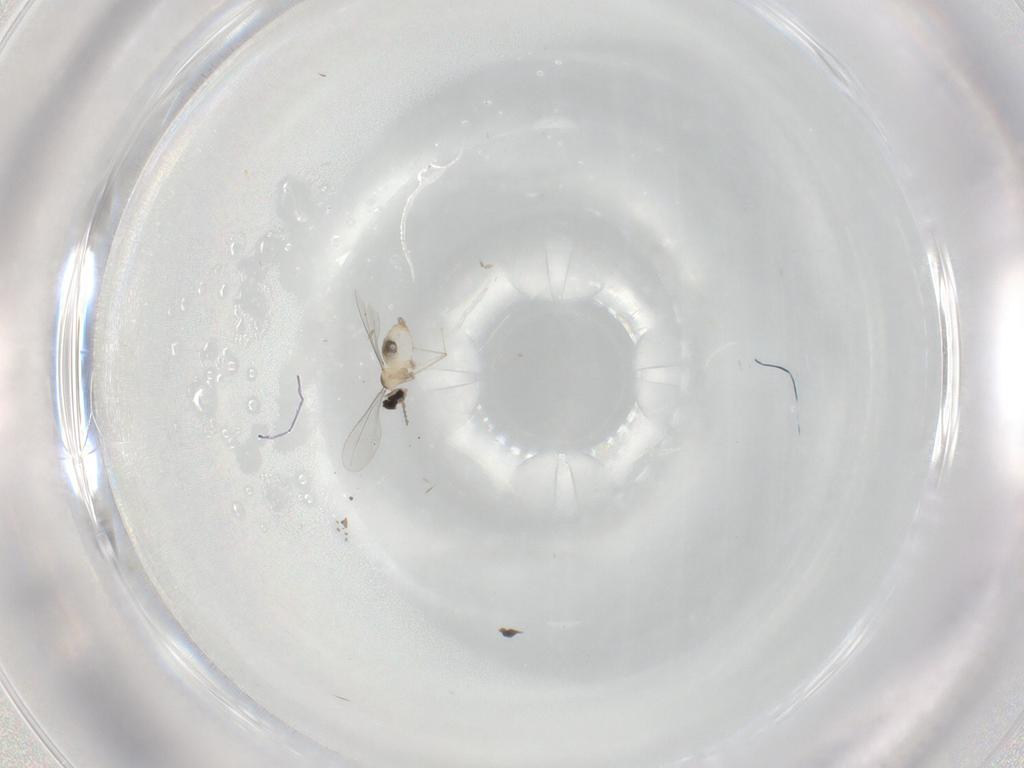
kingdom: Animalia
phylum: Arthropoda
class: Insecta
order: Diptera
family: Cecidomyiidae
